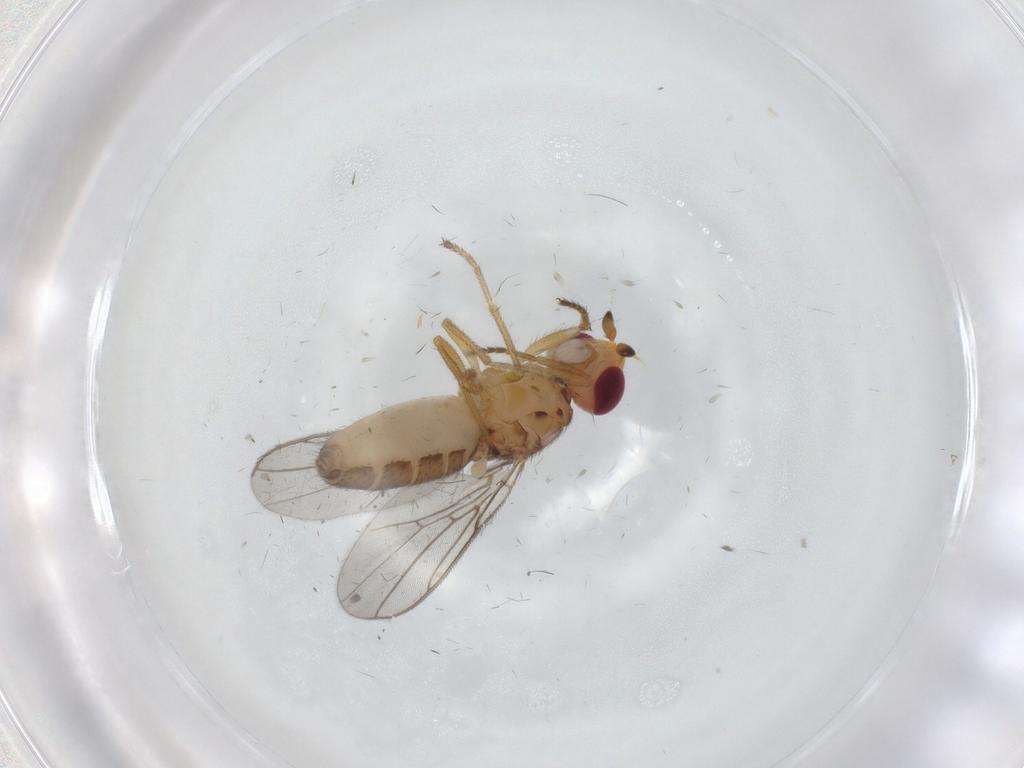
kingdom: Animalia
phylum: Arthropoda
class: Insecta
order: Diptera
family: Chloropidae
